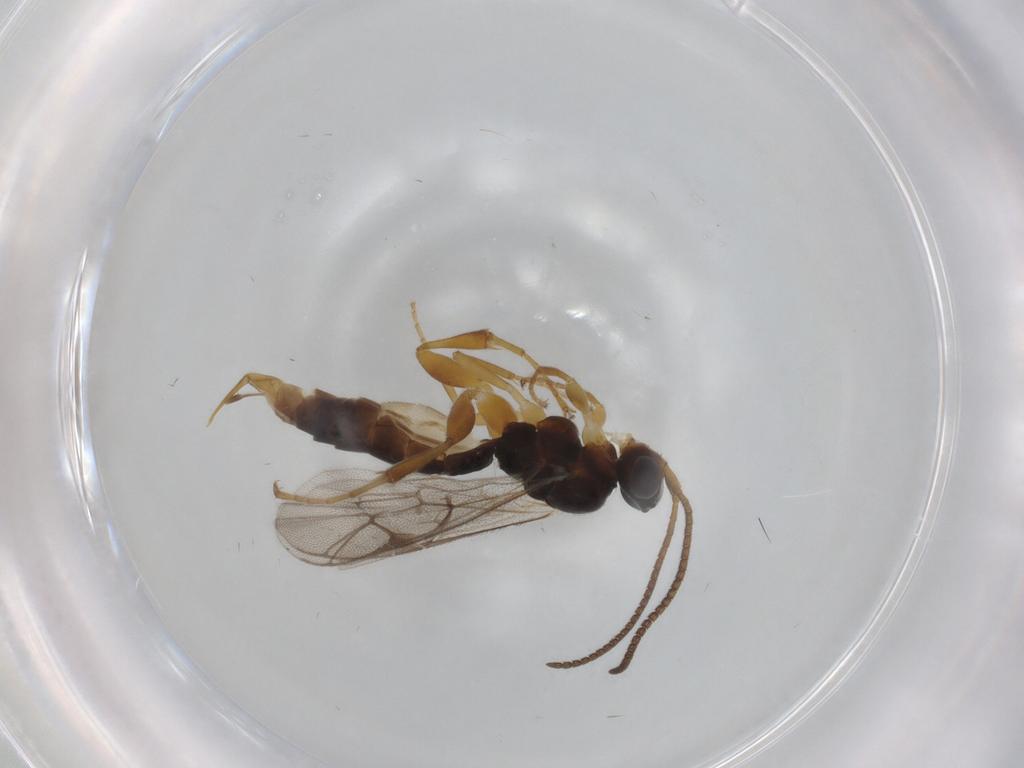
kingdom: Animalia
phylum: Arthropoda
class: Insecta
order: Hymenoptera
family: Ichneumonidae
